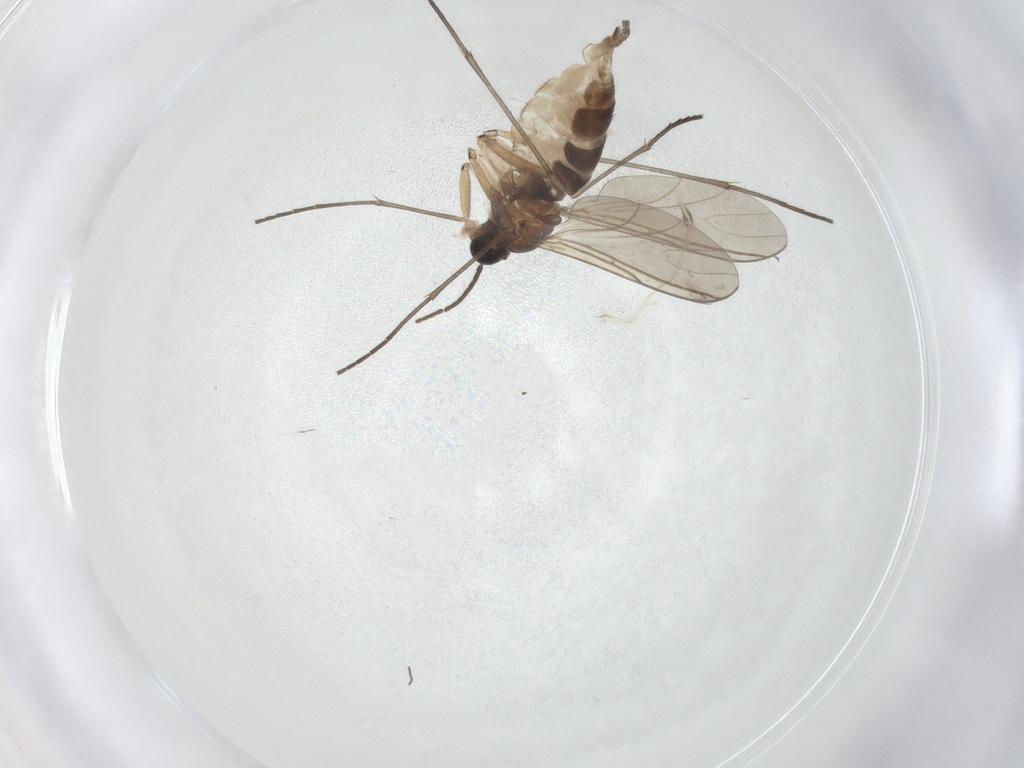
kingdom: Animalia
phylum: Arthropoda
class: Insecta
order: Diptera
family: Sciaridae
